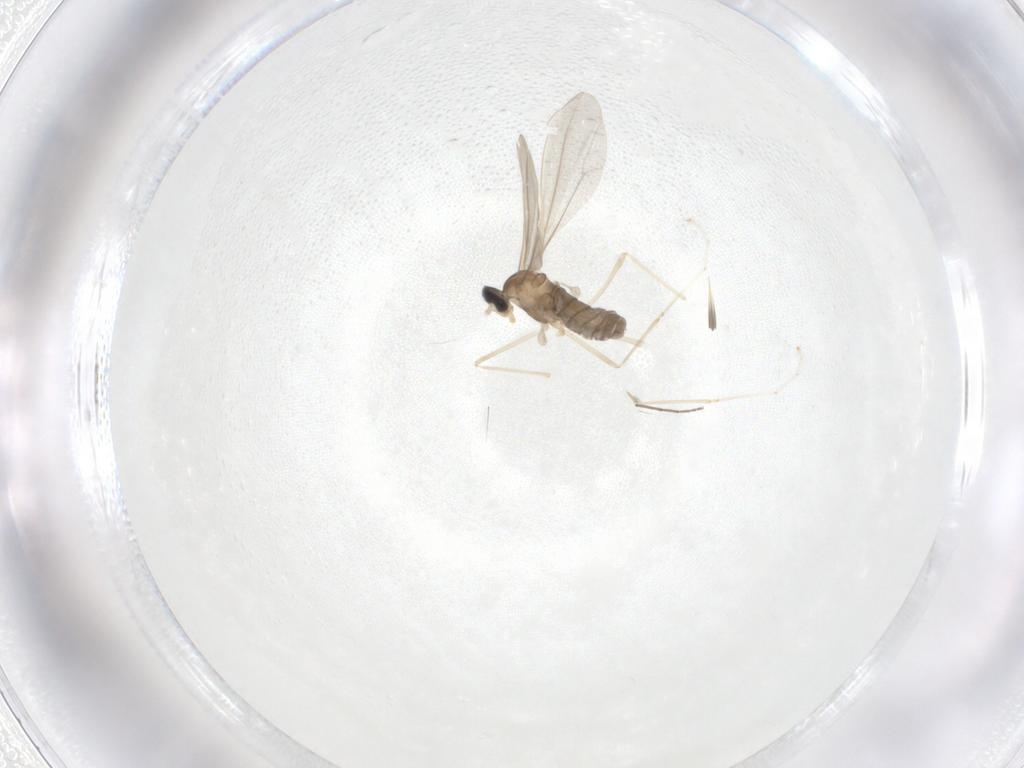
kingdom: Animalia
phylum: Arthropoda
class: Insecta
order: Diptera
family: Cecidomyiidae
